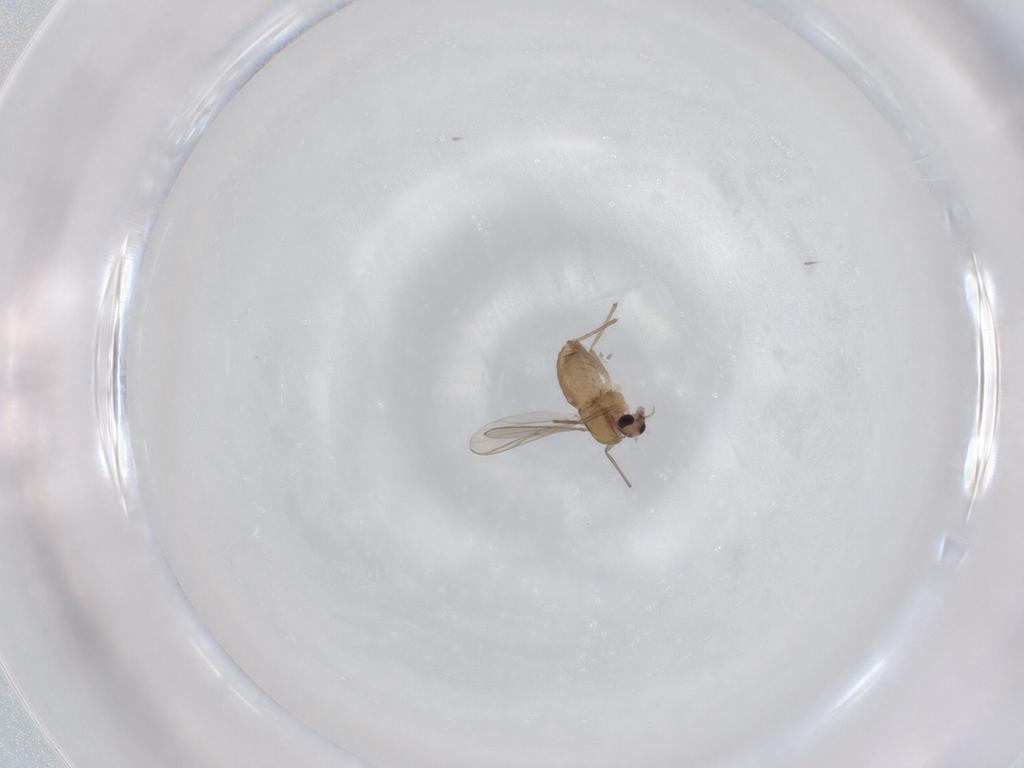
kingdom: Animalia
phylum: Arthropoda
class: Insecta
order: Diptera
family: Chironomidae
